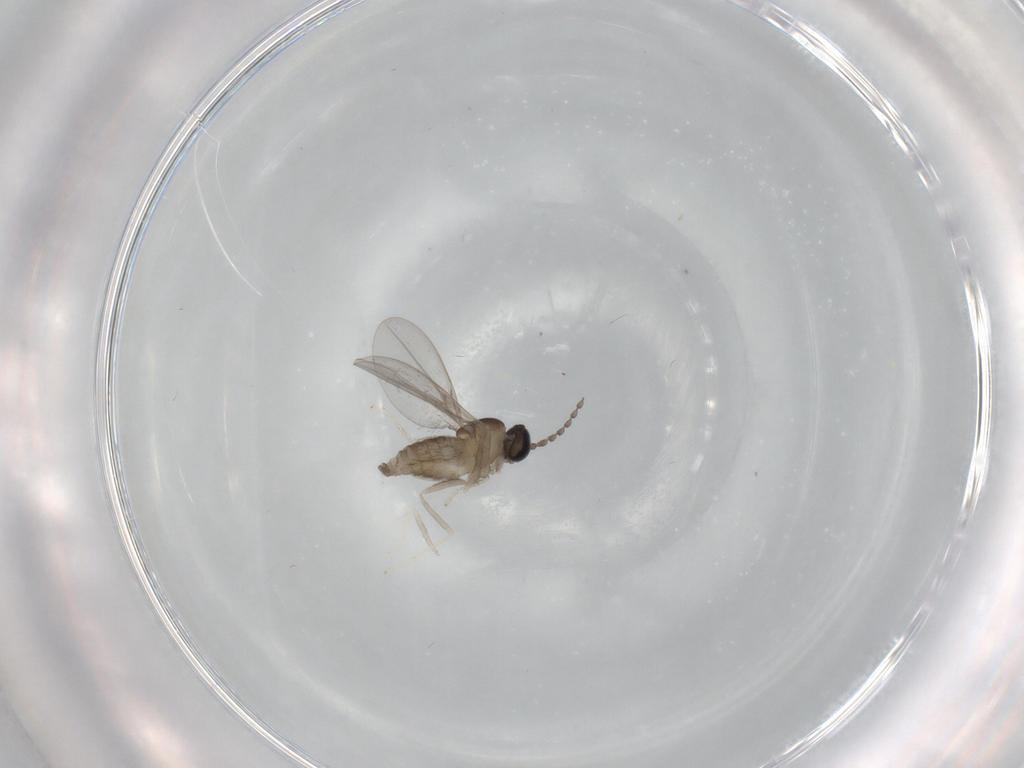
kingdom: Animalia
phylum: Arthropoda
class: Insecta
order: Diptera
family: Cecidomyiidae
